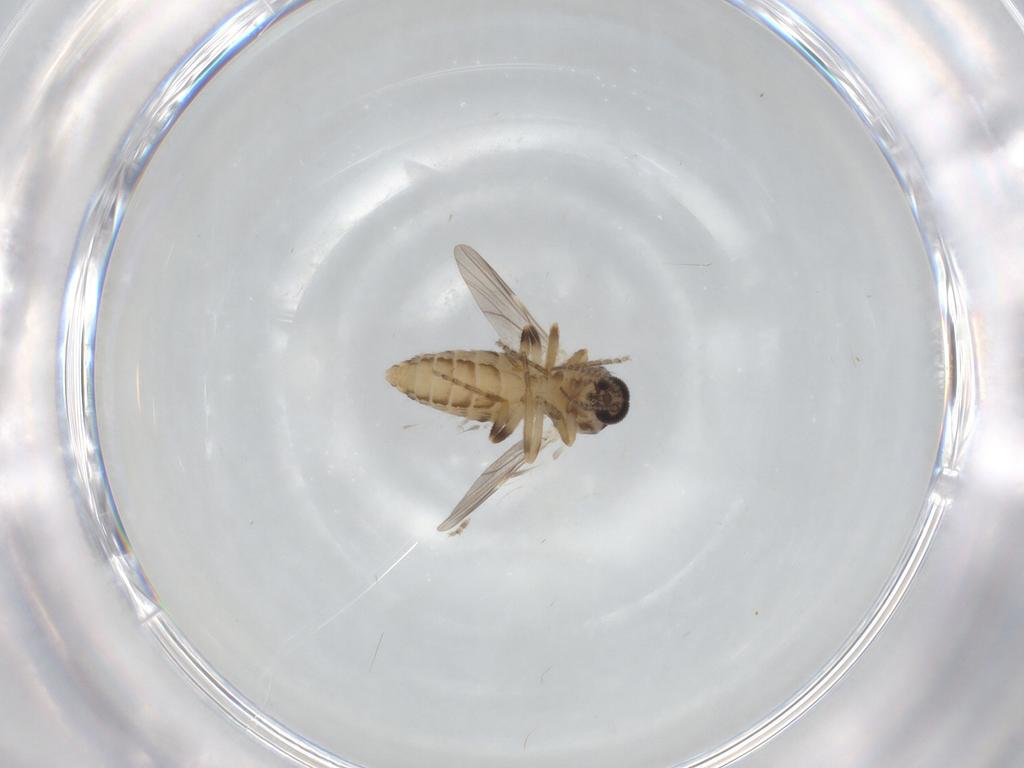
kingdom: Animalia
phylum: Arthropoda
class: Insecta
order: Diptera
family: Ceratopogonidae
